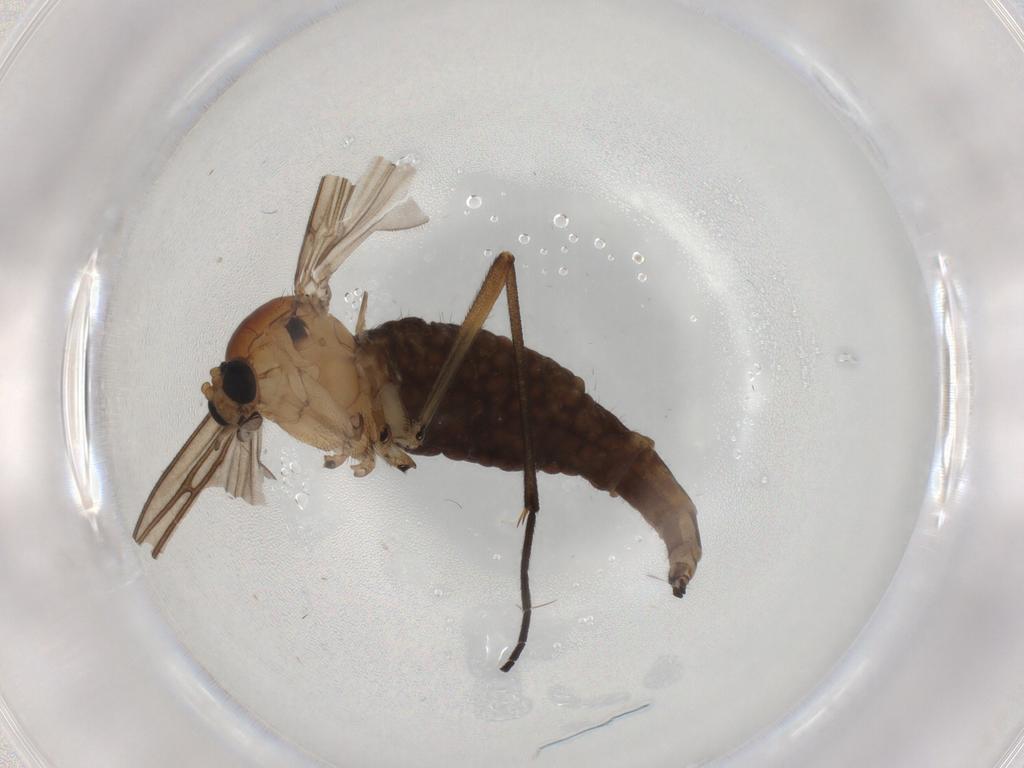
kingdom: Animalia
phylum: Arthropoda
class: Insecta
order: Diptera
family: Sciaridae
